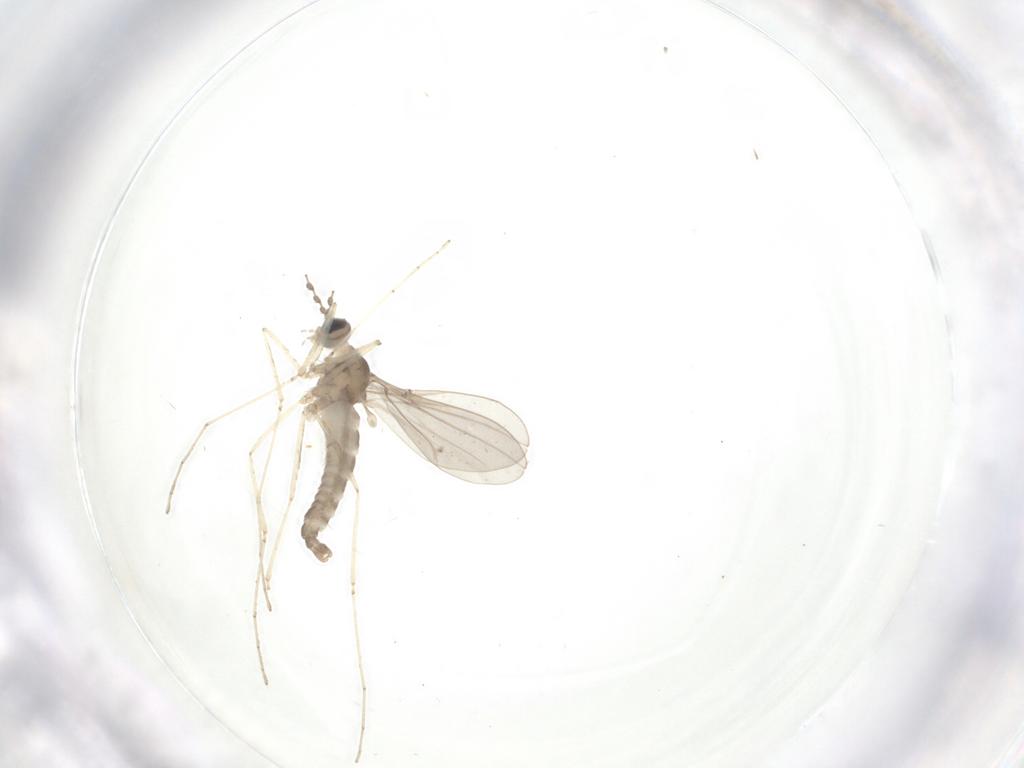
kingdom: Animalia
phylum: Arthropoda
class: Insecta
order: Diptera
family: Cecidomyiidae
